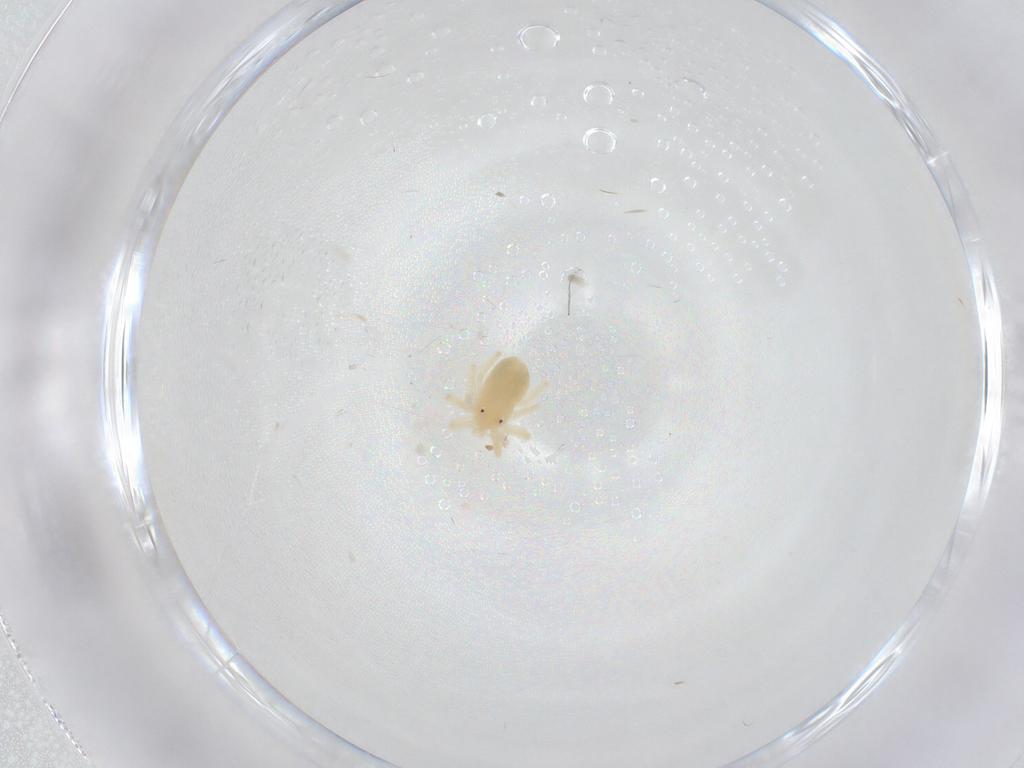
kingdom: Animalia
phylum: Arthropoda
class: Arachnida
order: Trombidiformes
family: Anystidae
